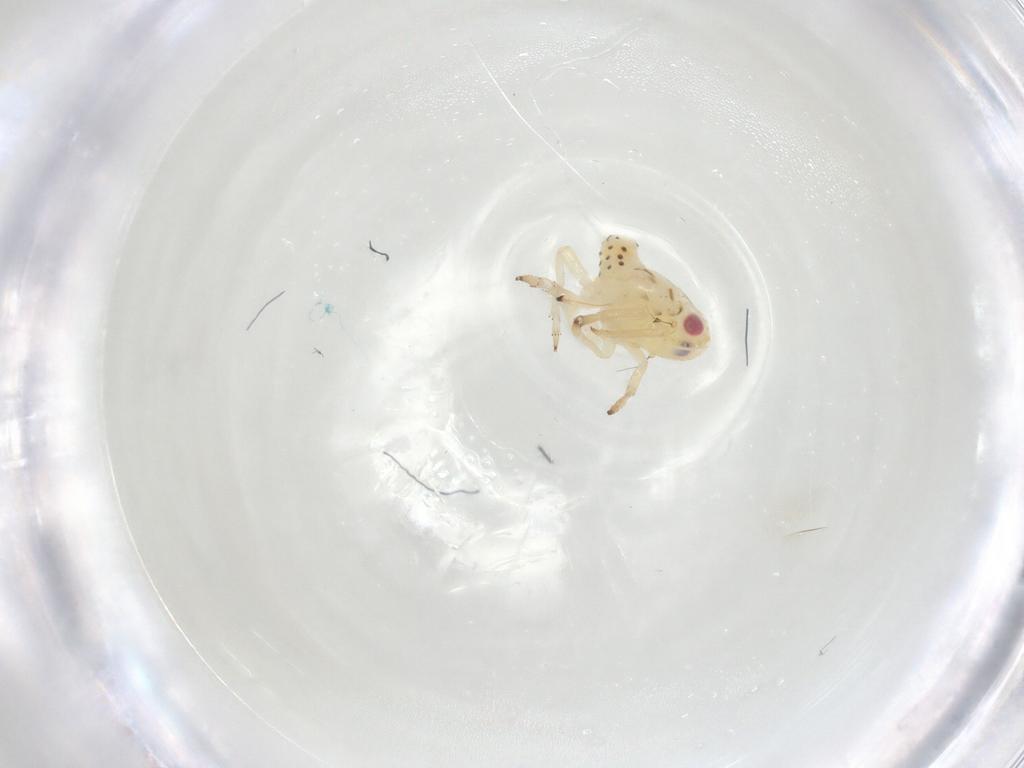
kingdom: Animalia
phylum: Arthropoda
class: Insecta
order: Hemiptera
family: Tropiduchidae
